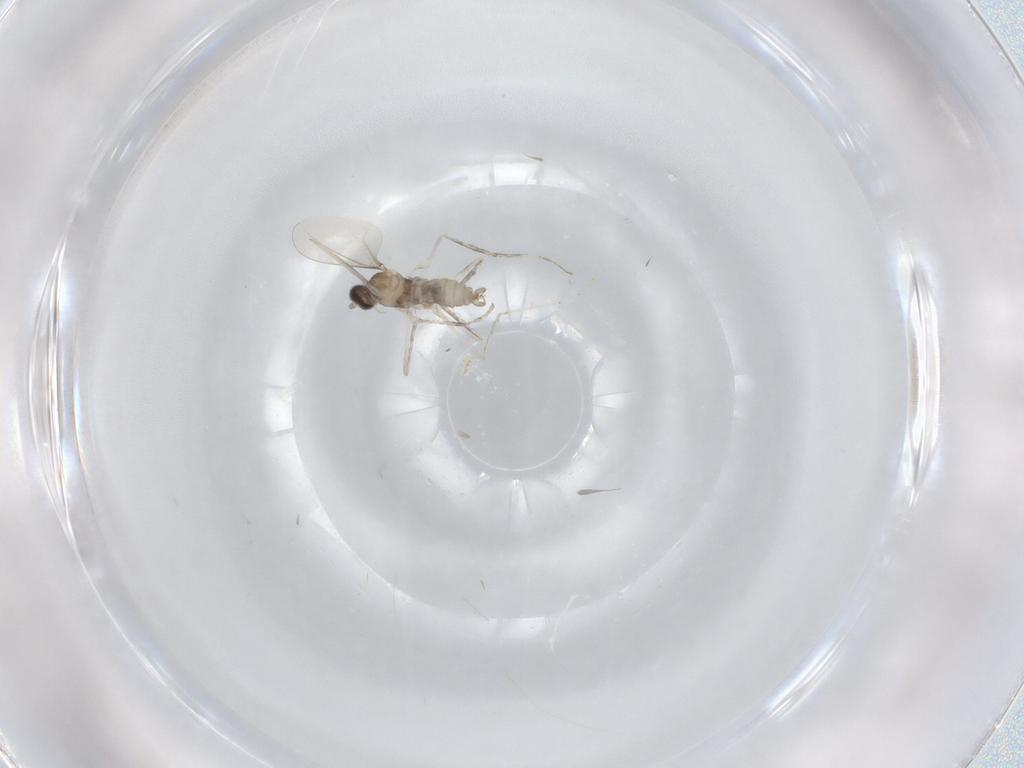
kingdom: Animalia
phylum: Arthropoda
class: Insecta
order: Diptera
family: Cecidomyiidae
